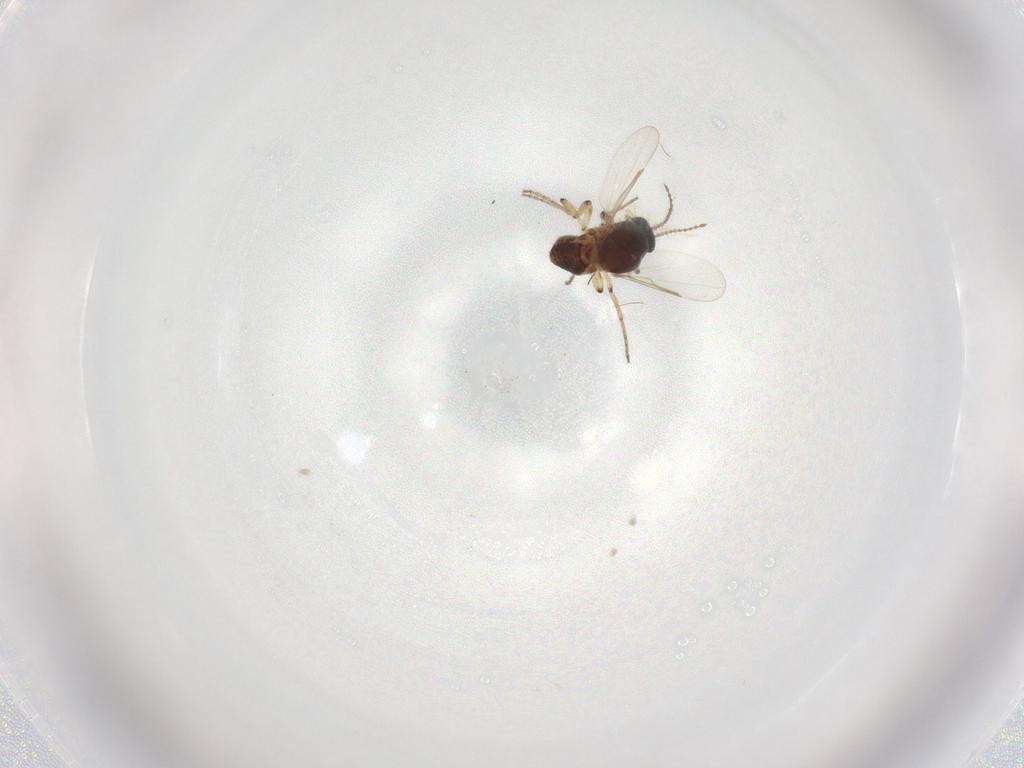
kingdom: Animalia
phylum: Arthropoda
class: Insecta
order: Diptera
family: Ceratopogonidae
